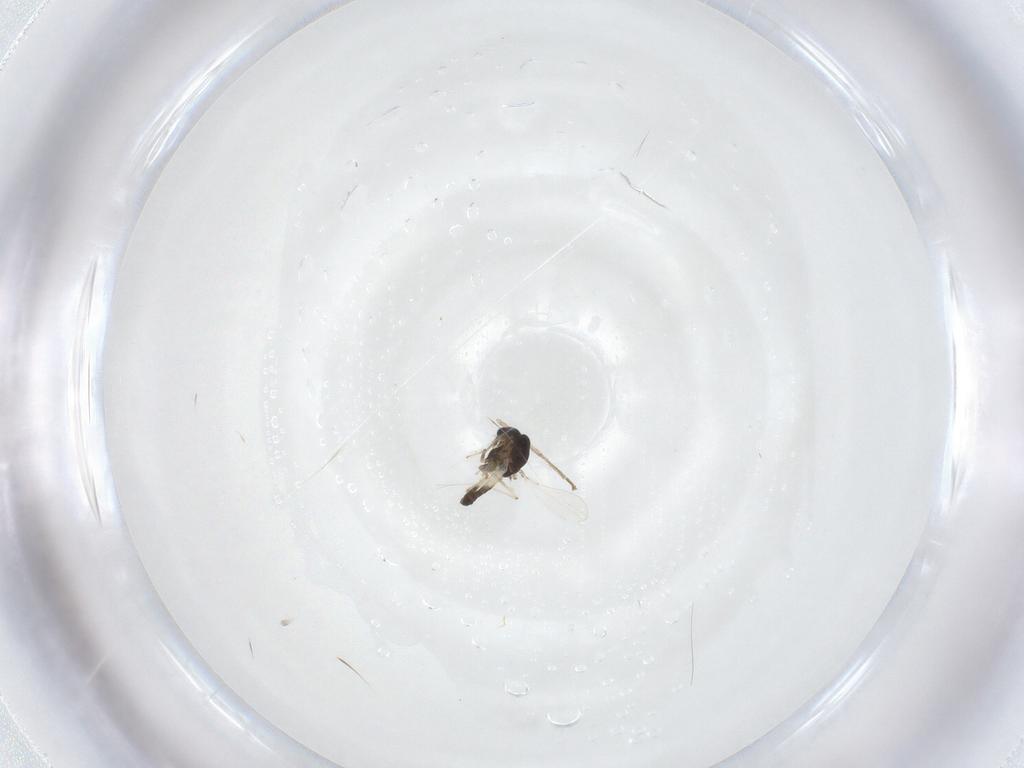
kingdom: Animalia
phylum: Arthropoda
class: Insecta
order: Diptera
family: Cecidomyiidae
